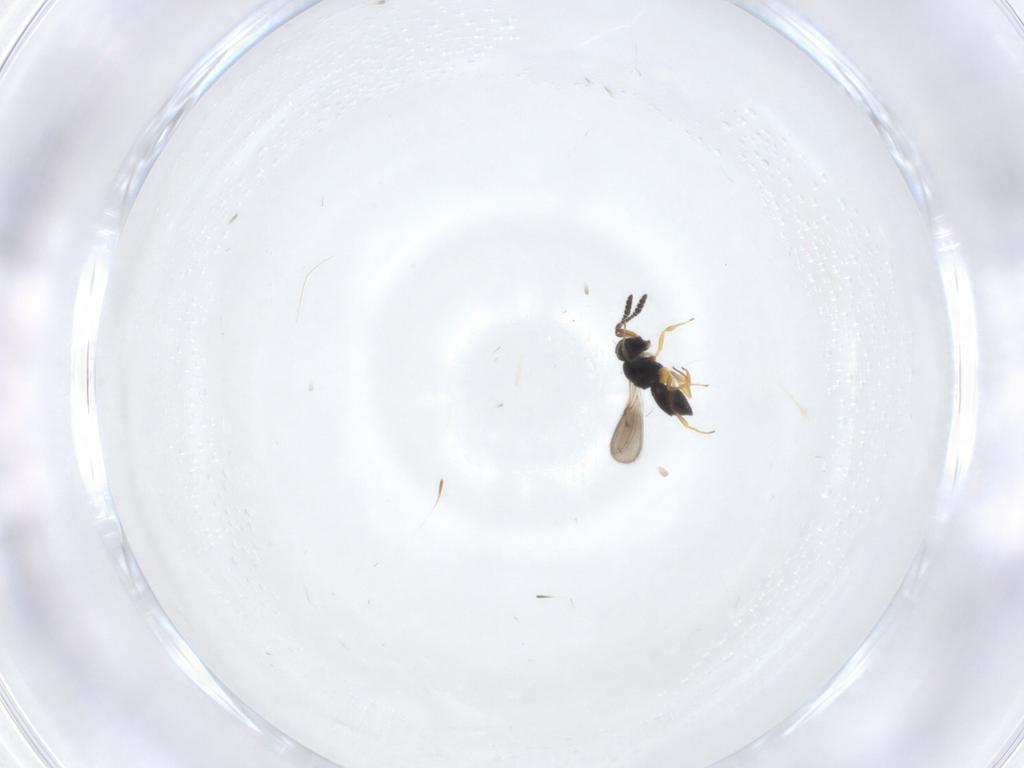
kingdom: Animalia
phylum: Arthropoda
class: Insecta
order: Hymenoptera
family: Scelionidae
